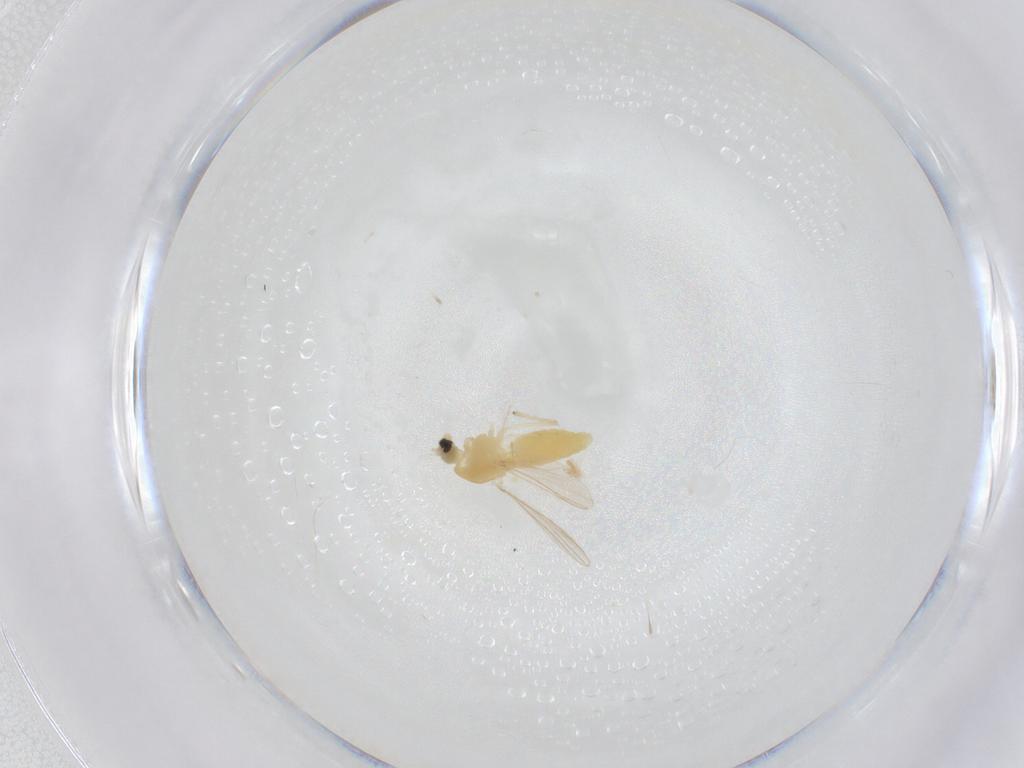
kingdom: Animalia
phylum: Arthropoda
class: Insecta
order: Diptera
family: Chironomidae
